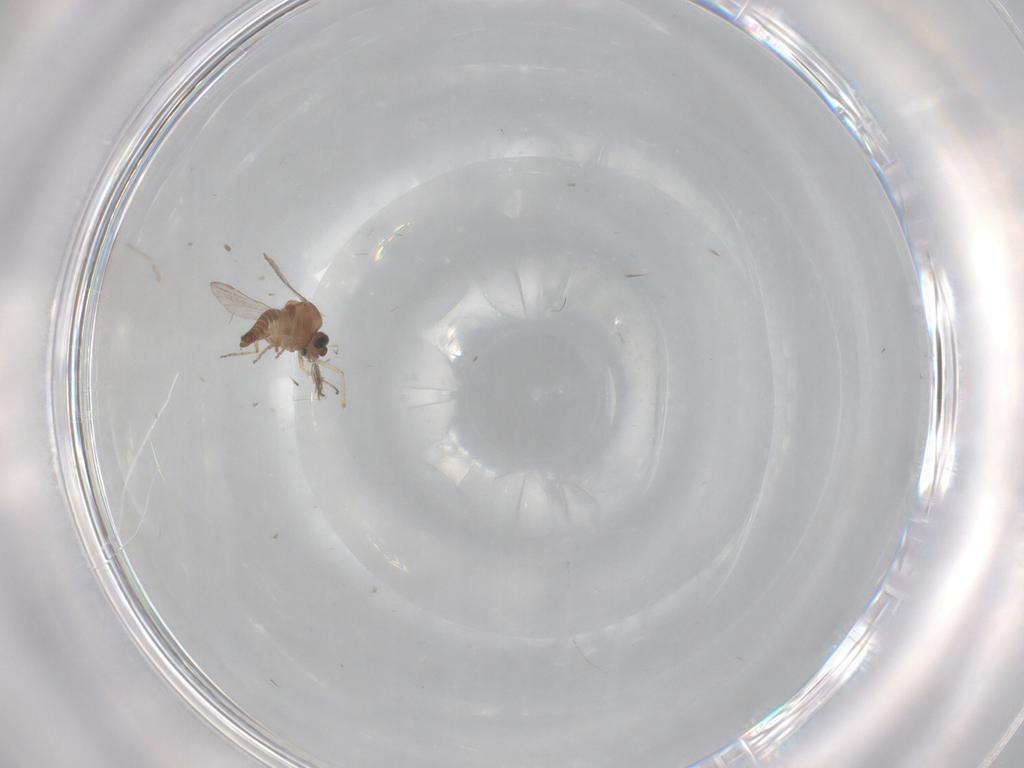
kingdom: Animalia
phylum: Arthropoda
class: Insecta
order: Diptera
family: Ceratopogonidae
